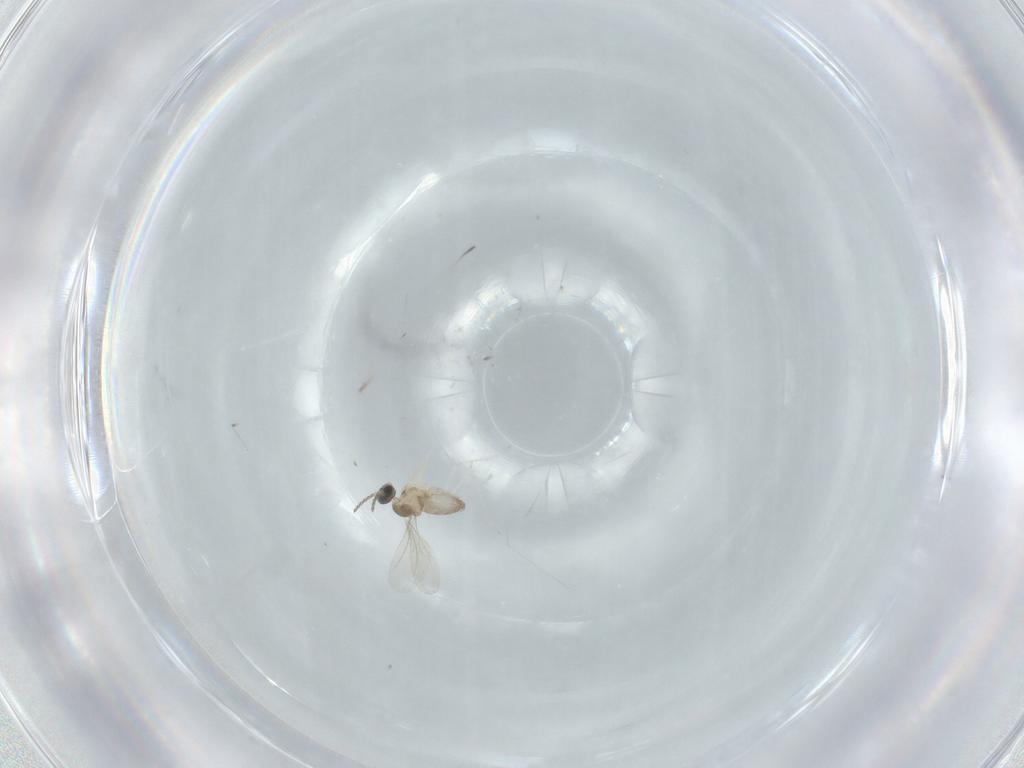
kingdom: Animalia
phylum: Arthropoda
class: Insecta
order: Diptera
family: Cecidomyiidae
